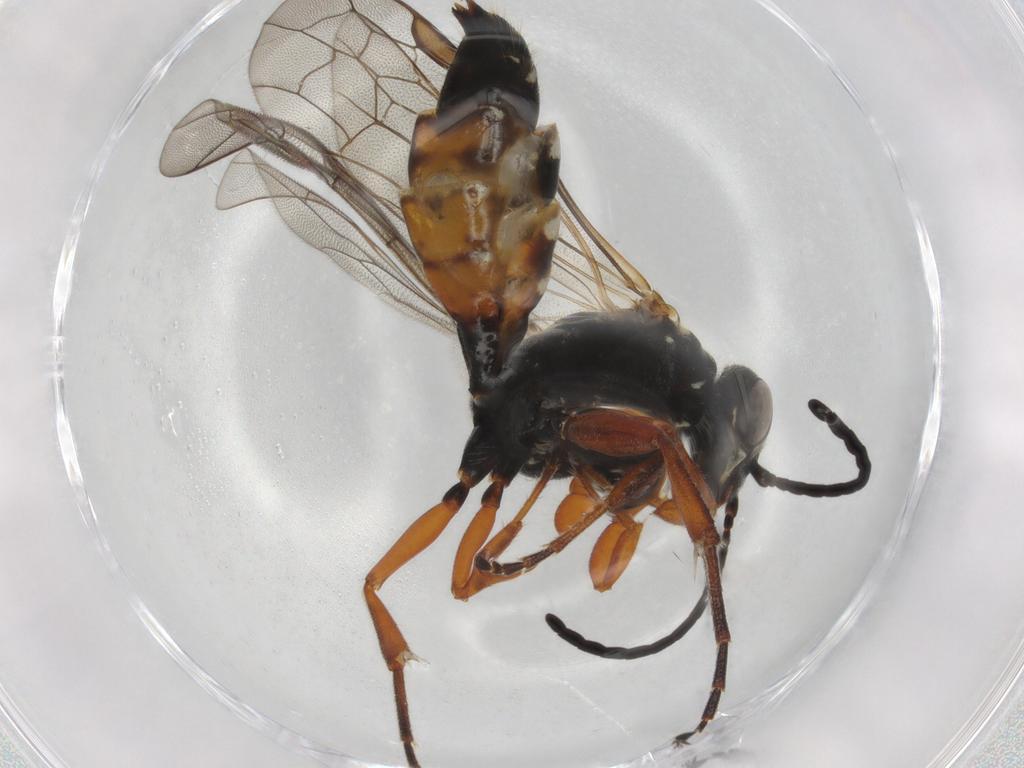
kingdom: Animalia
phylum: Arthropoda
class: Insecta
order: Hymenoptera
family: Thynnidae
